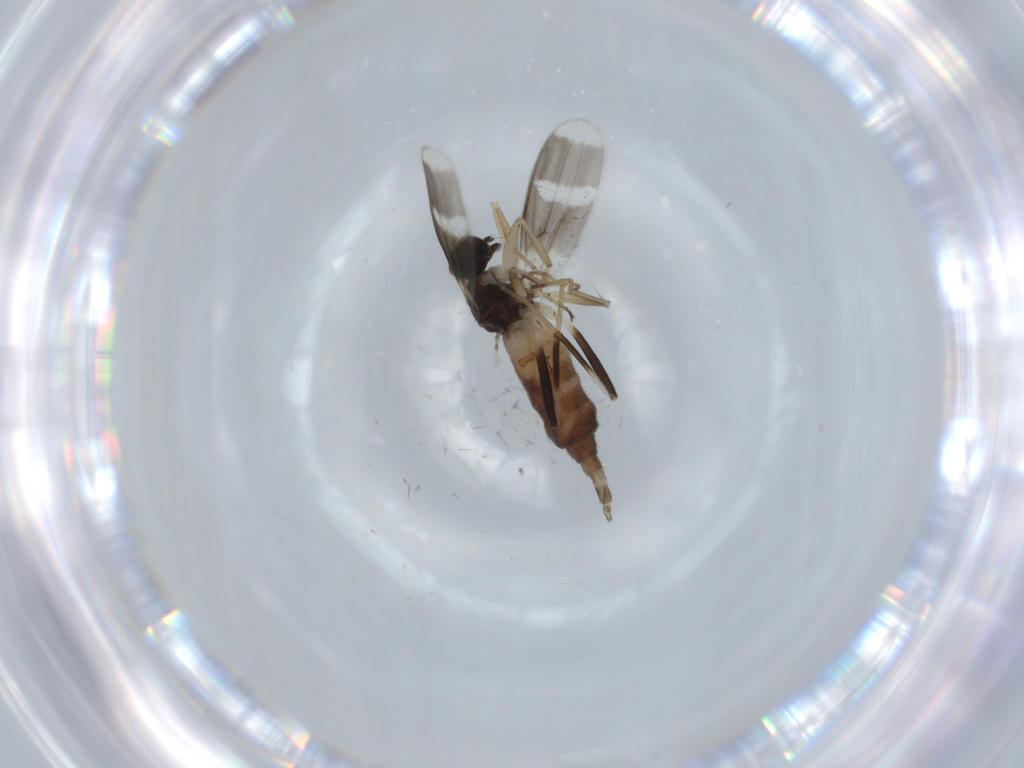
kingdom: Animalia
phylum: Arthropoda
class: Insecta
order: Diptera
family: Hybotidae
